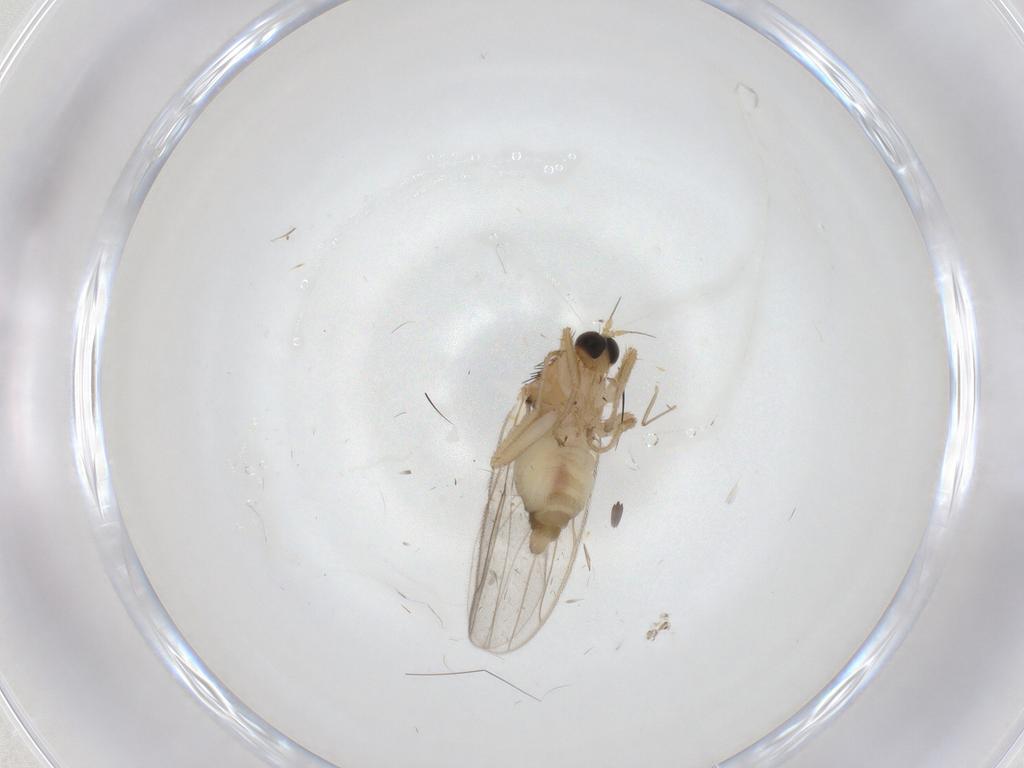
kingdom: Animalia
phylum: Arthropoda
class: Insecta
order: Diptera
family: Hybotidae
